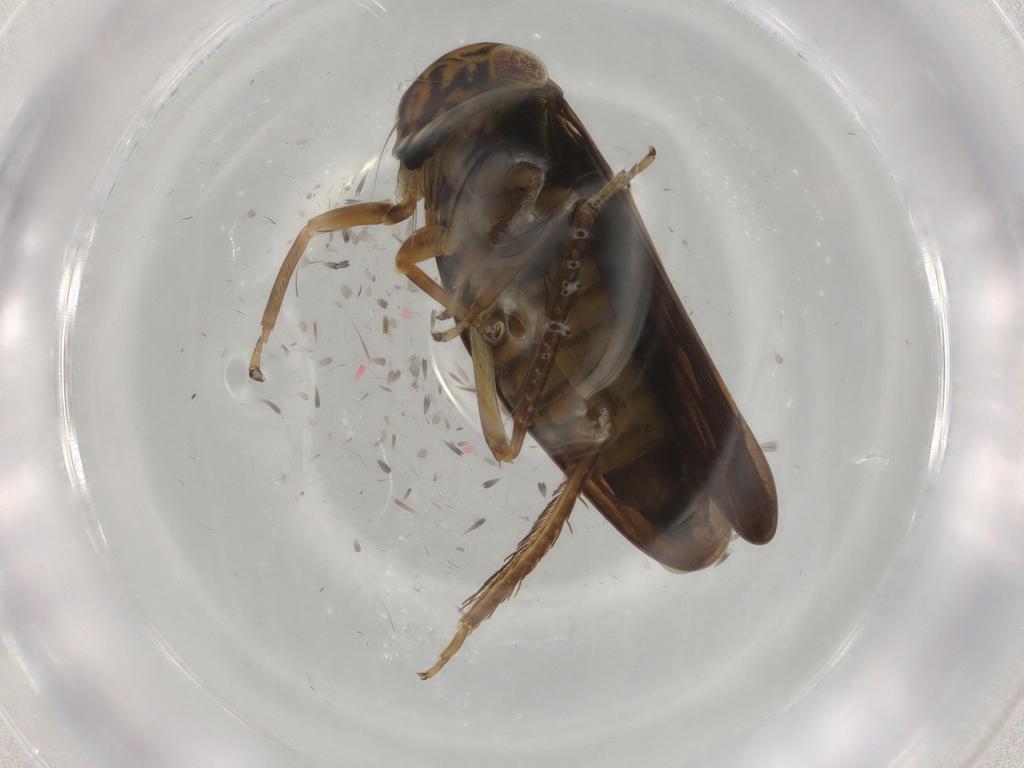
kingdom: Animalia
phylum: Arthropoda
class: Insecta
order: Hemiptera
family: Cicadellidae
